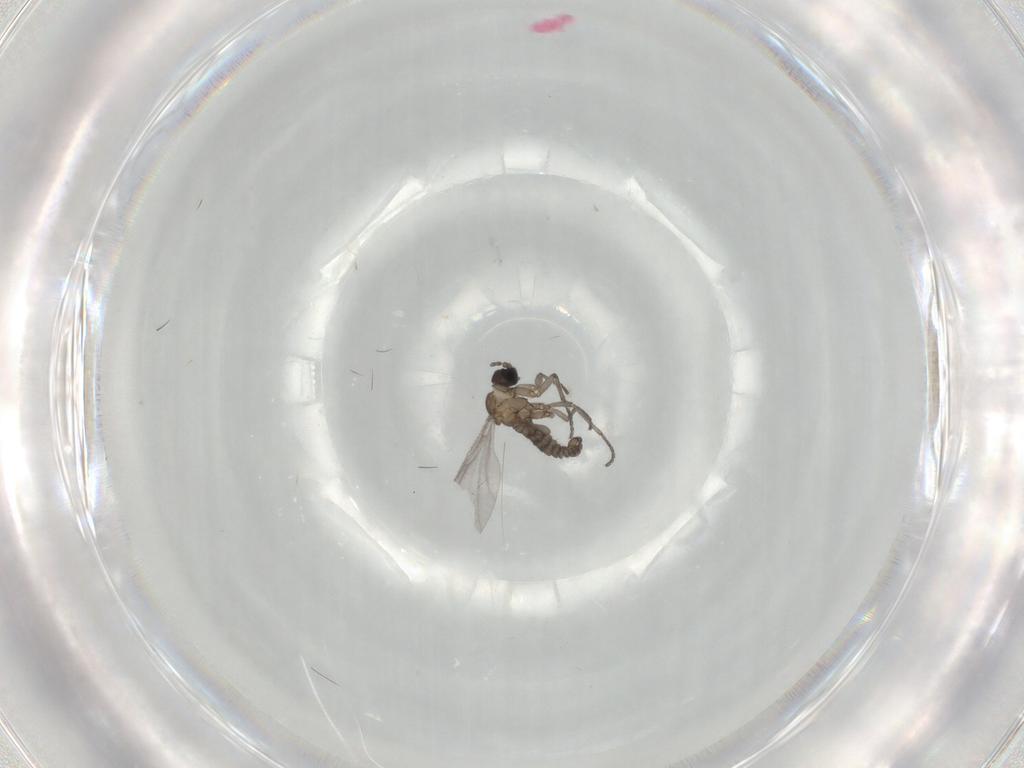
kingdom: Animalia
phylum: Arthropoda
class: Insecta
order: Diptera
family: Sciaridae
